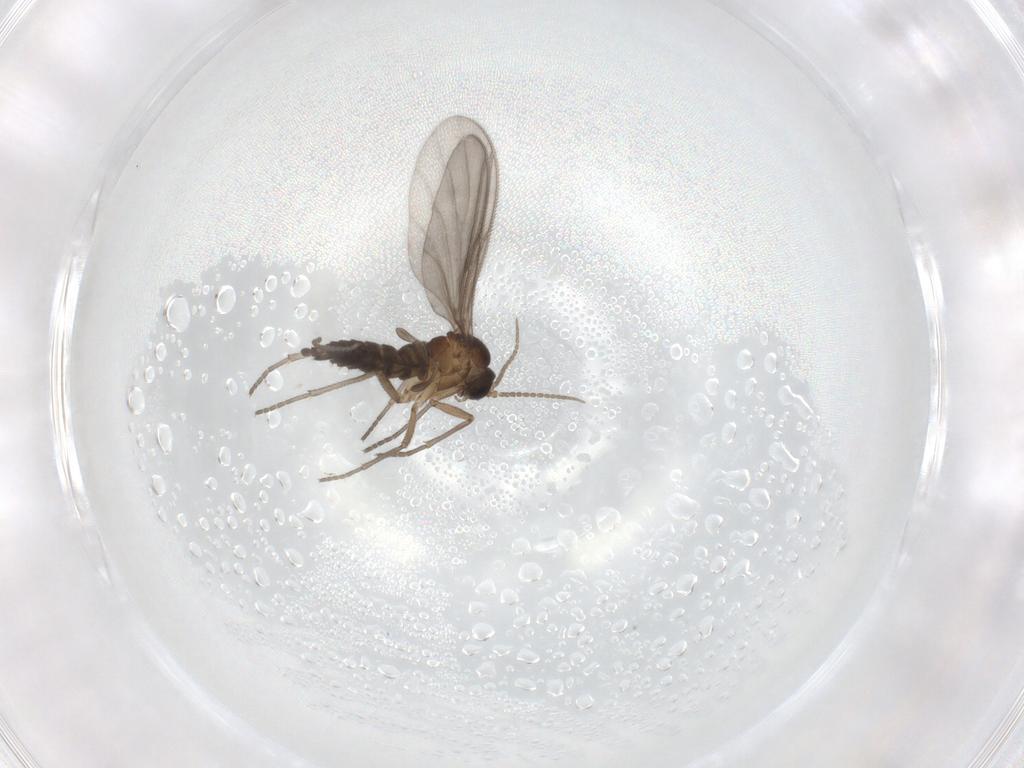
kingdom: Animalia
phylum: Arthropoda
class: Insecta
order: Diptera
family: Sciaridae
